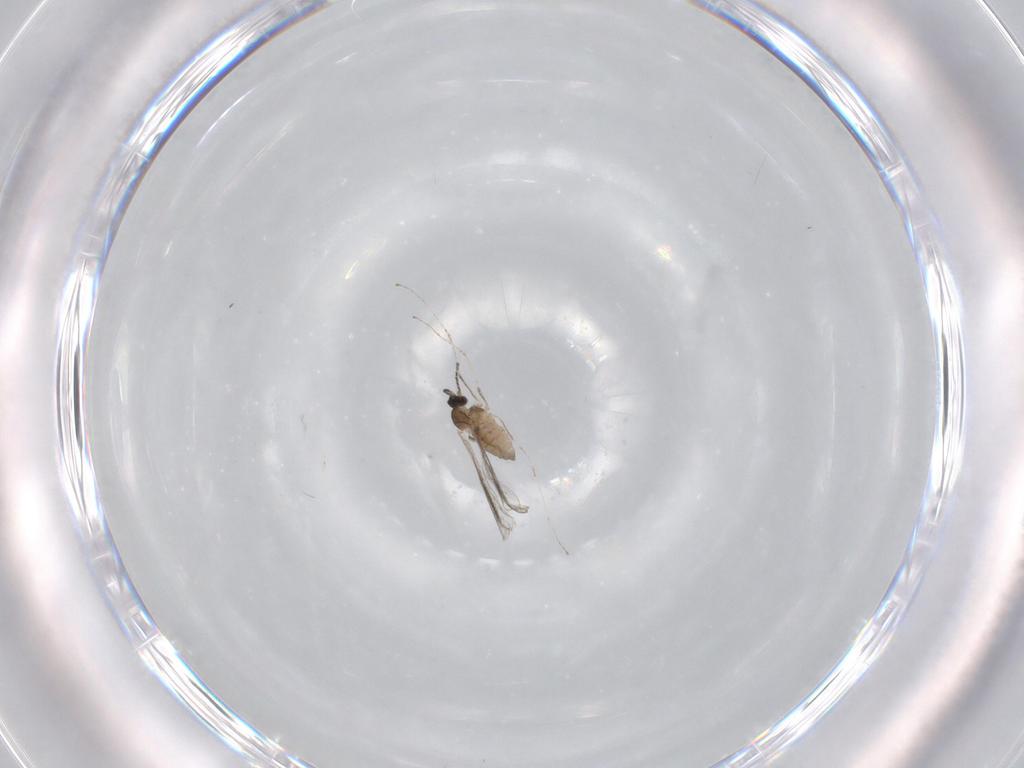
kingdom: Animalia
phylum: Arthropoda
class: Insecta
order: Diptera
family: Cecidomyiidae
